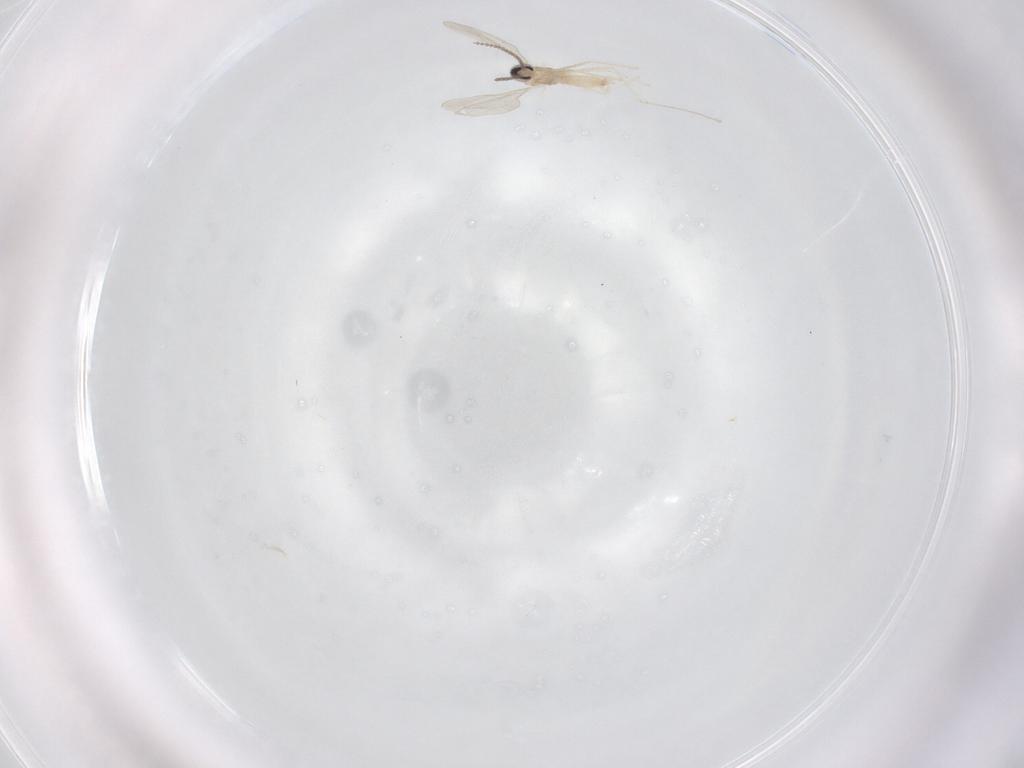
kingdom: Animalia
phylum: Arthropoda
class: Insecta
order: Diptera
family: Cecidomyiidae
